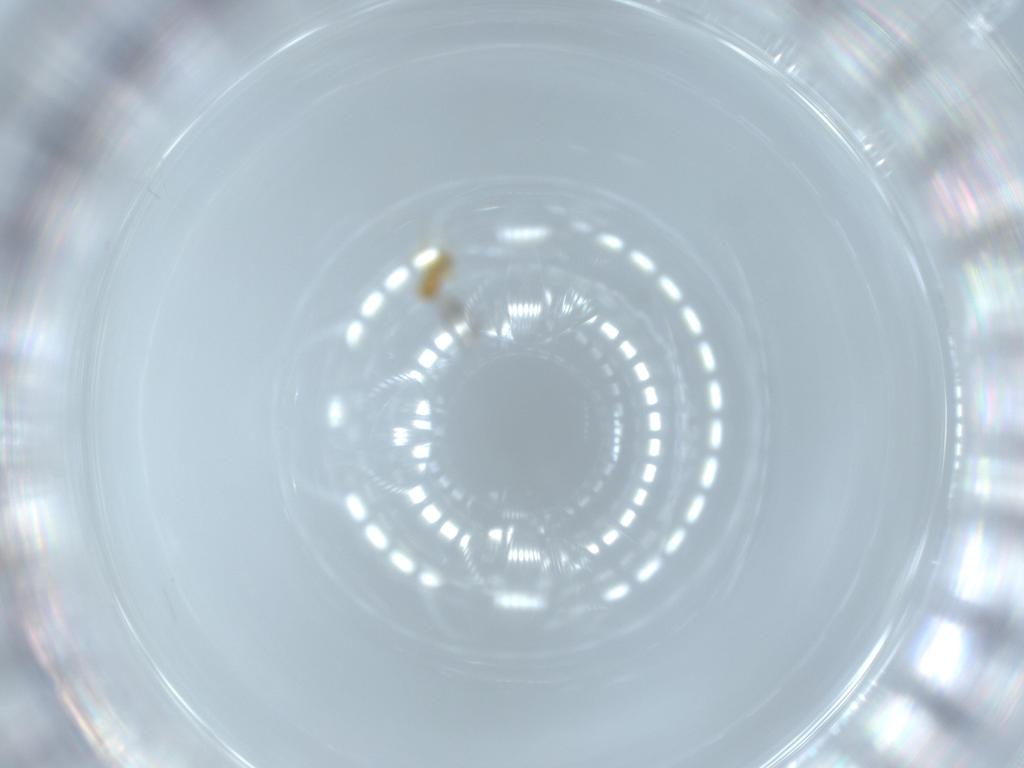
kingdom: Animalia
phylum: Arthropoda
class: Insecta
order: Hymenoptera
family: Mymaridae
